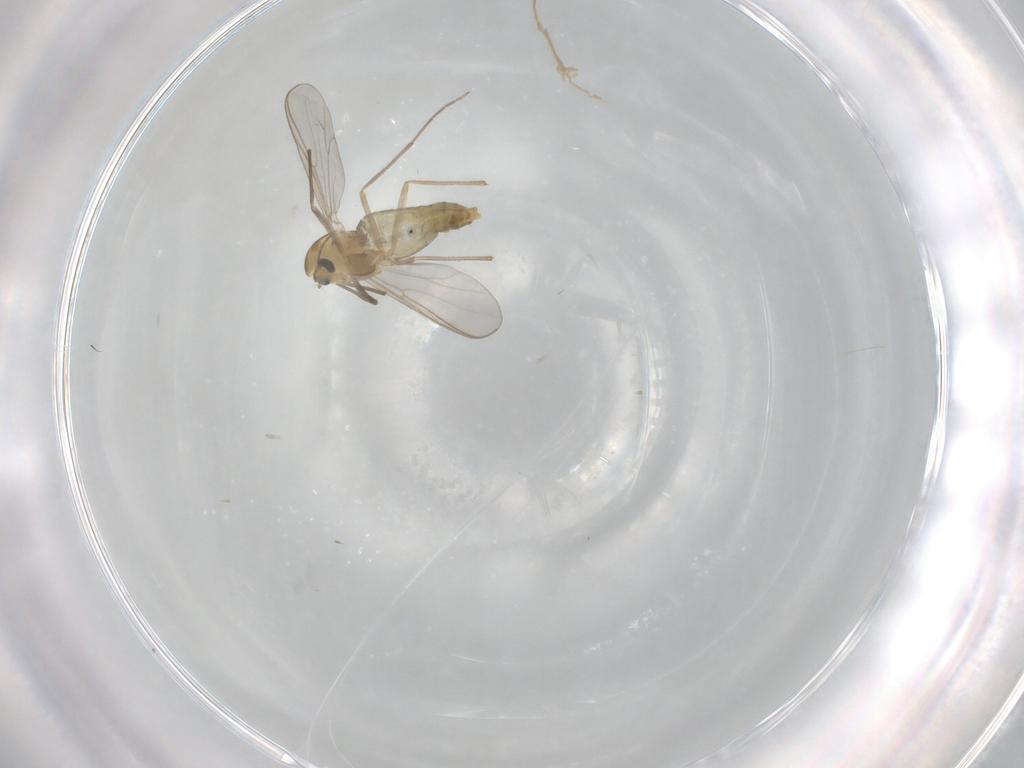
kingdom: Animalia
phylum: Arthropoda
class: Insecta
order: Diptera
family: Chironomidae
